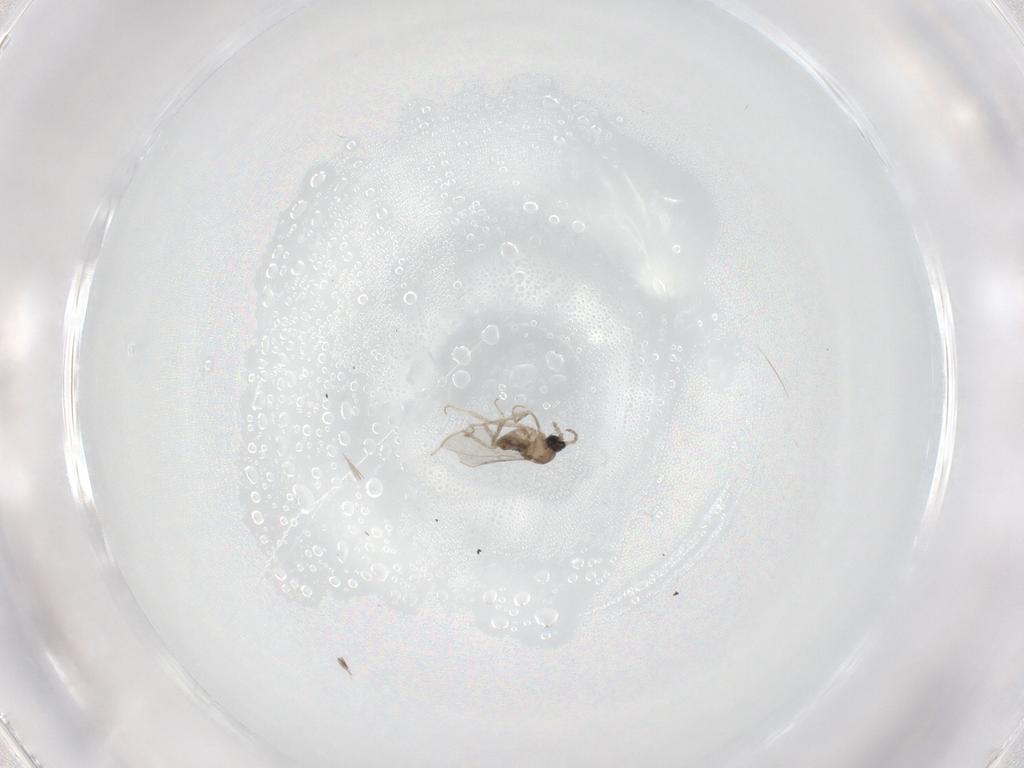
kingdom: Animalia
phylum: Arthropoda
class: Insecta
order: Diptera
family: Cecidomyiidae
